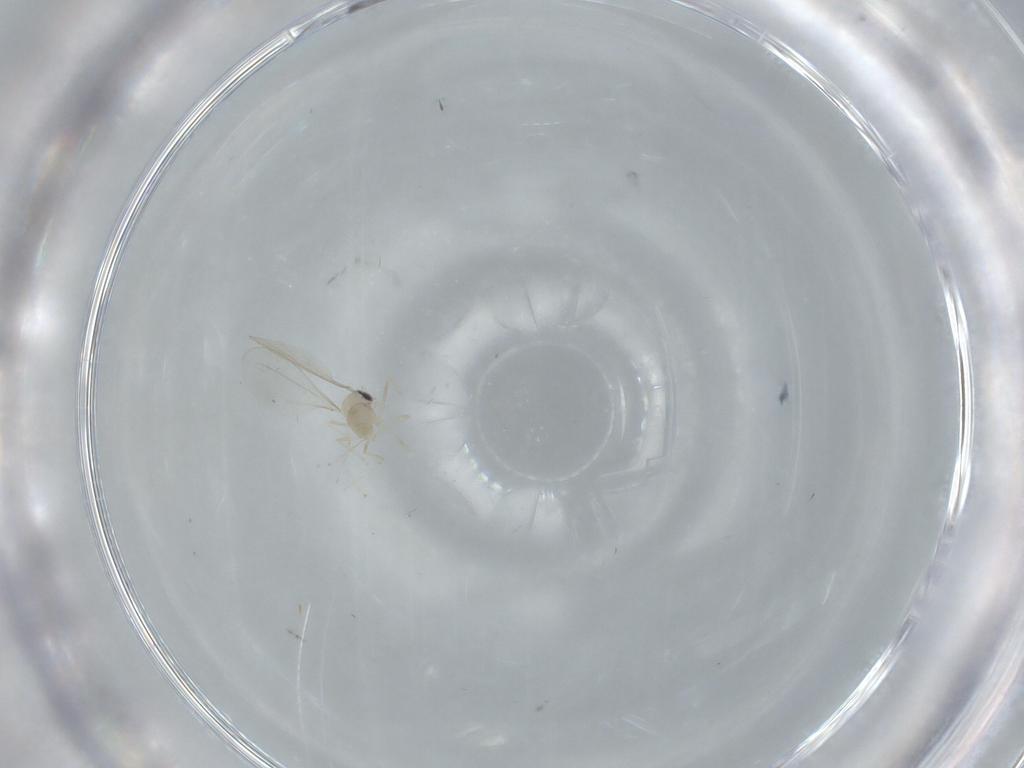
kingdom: Animalia
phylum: Arthropoda
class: Insecta
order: Diptera
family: Cecidomyiidae
